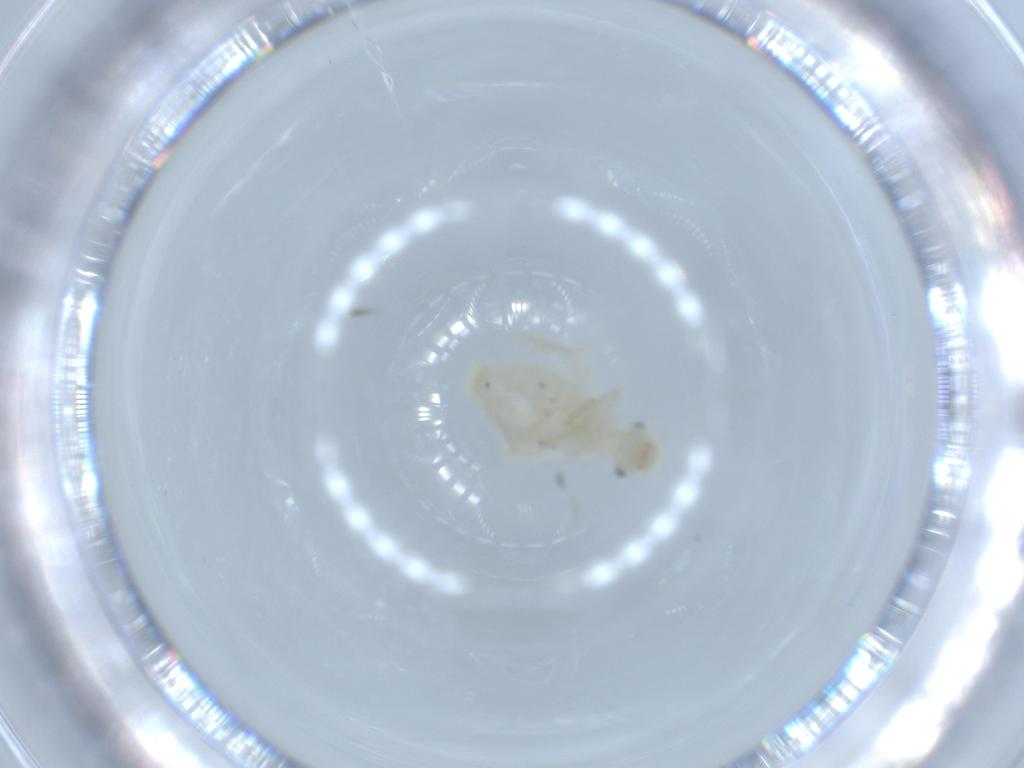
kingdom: Animalia
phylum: Arthropoda
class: Insecta
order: Psocodea
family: Caeciliusidae
